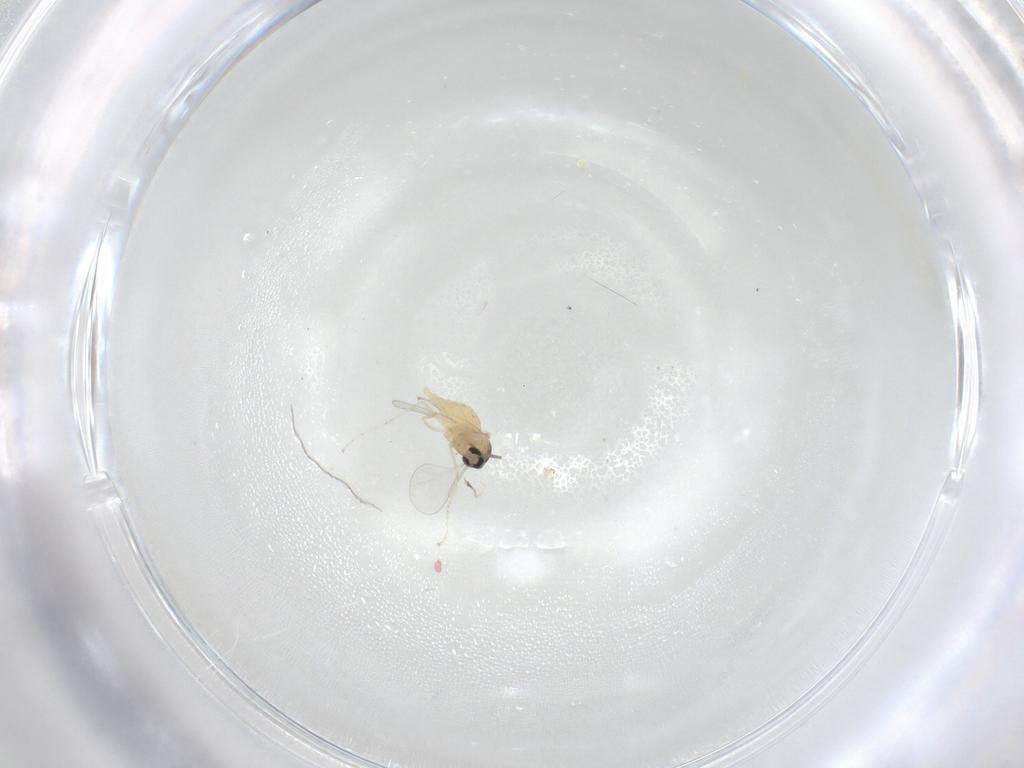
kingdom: Animalia
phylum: Arthropoda
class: Insecta
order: Diptera
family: Cecidomyiidae
